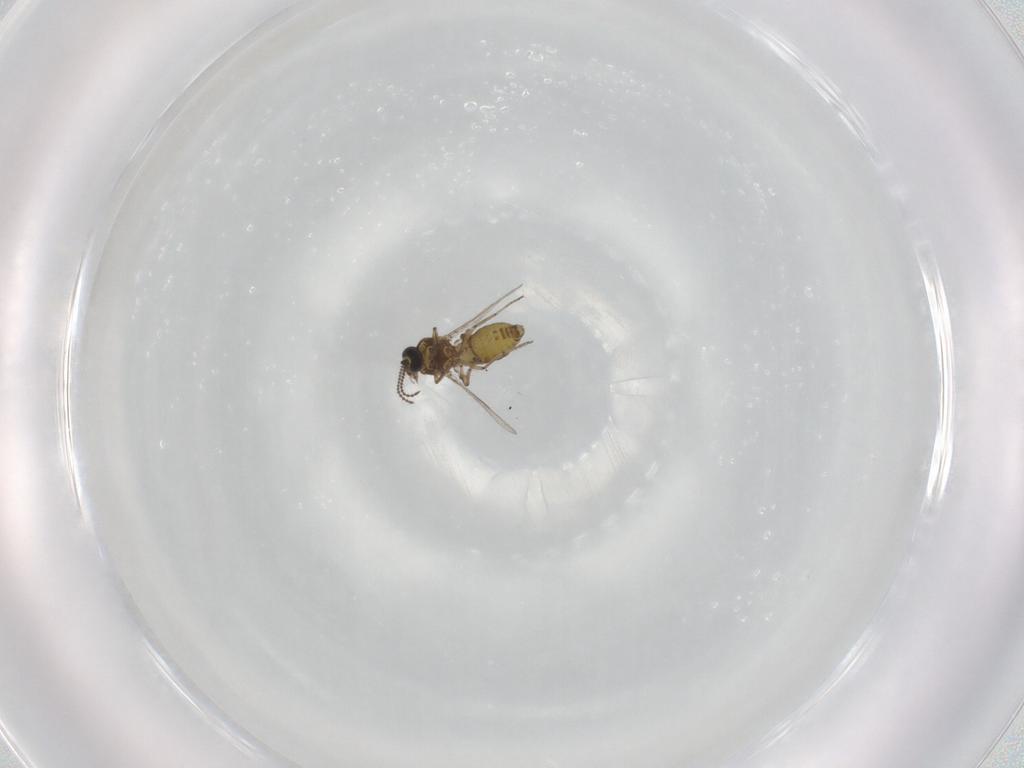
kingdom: Animalia
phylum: Arthropoda
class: Insecta
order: Diptera
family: Ceratopogonidae
